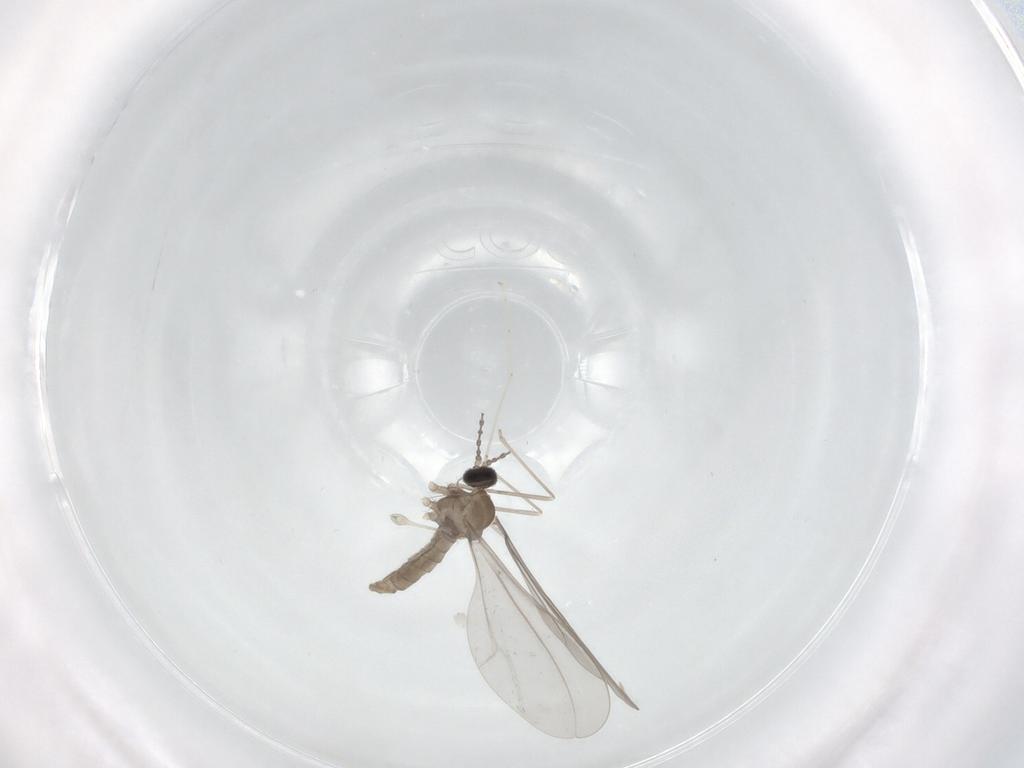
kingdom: Animalia
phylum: Arthropoda
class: Insecta
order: Diptera
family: Cecidomyiidae
